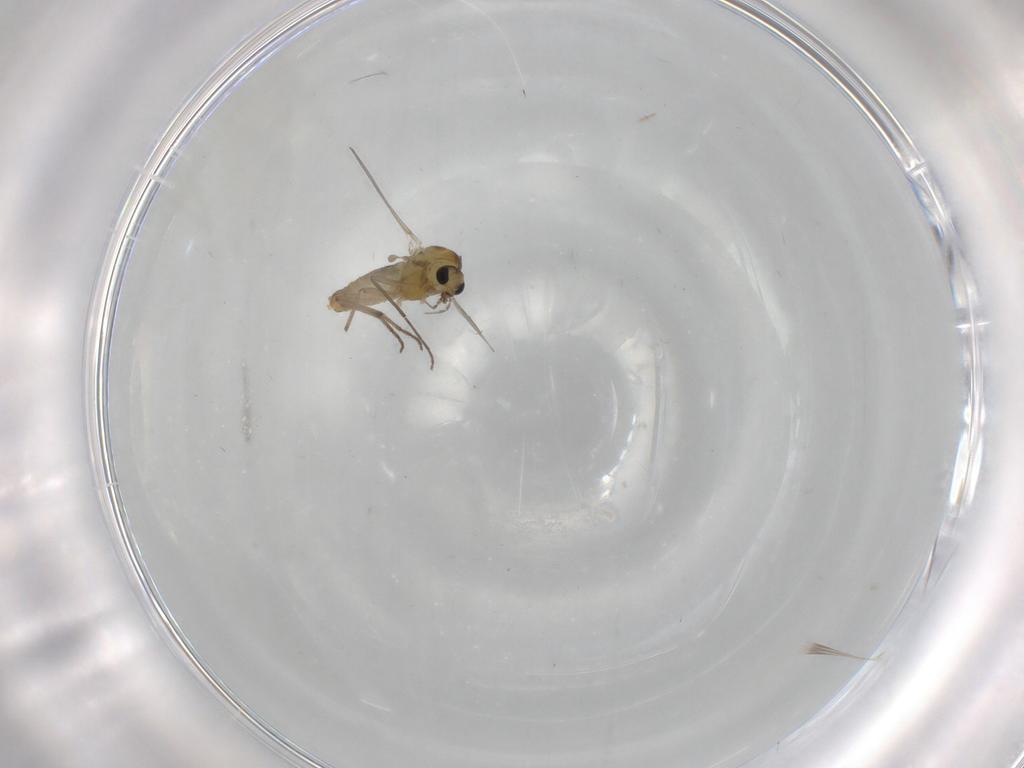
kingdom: Animalia
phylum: Arthropoda
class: Insecta
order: Diptera
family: Chironomidae
